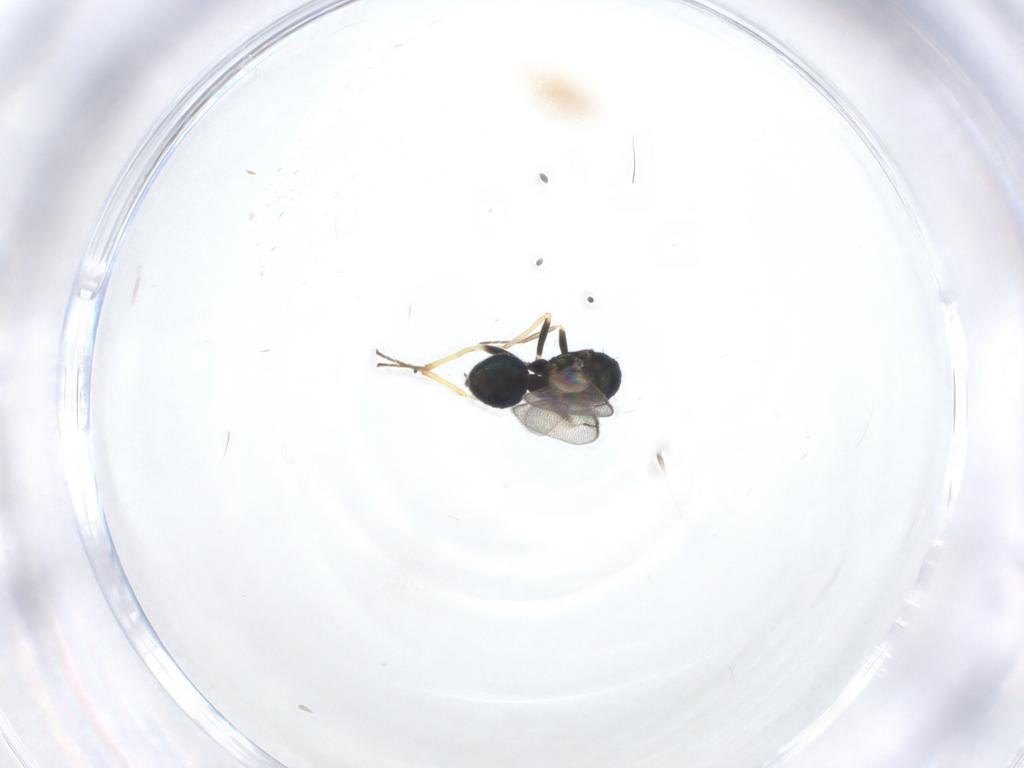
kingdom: Animalia
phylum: Arthropoda
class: Insecta
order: Hymenoptera
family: Eulophidae
